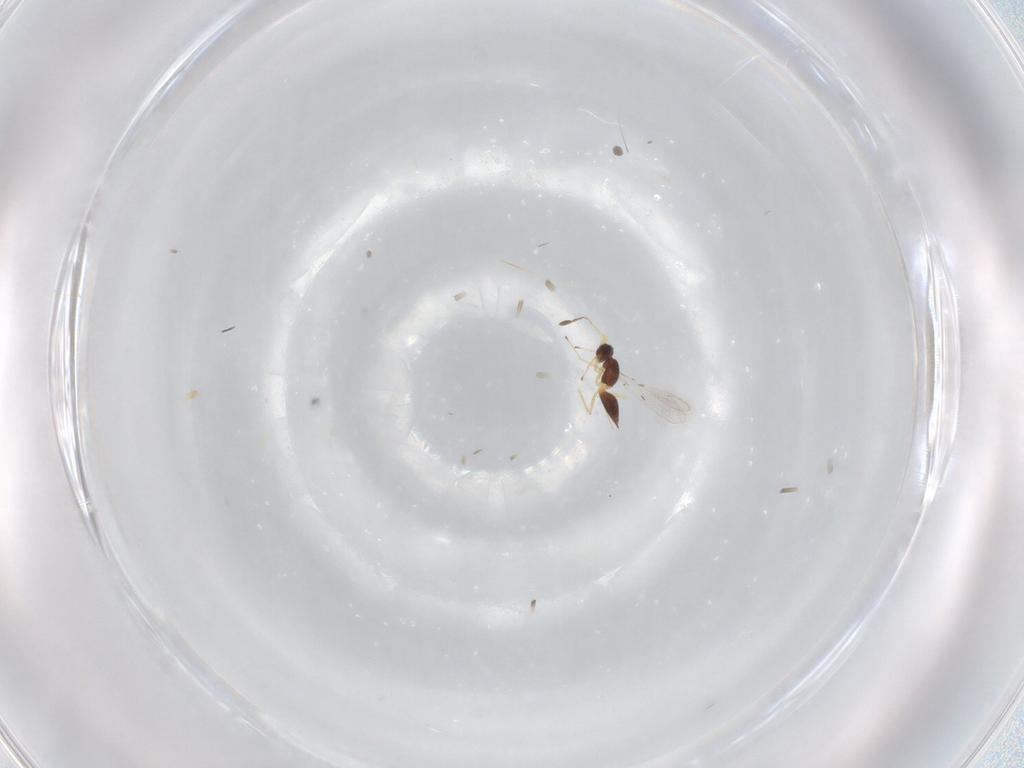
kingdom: Animalia
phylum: Arthropoda
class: Insecta
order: Hymenoptera
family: Mymaridae
